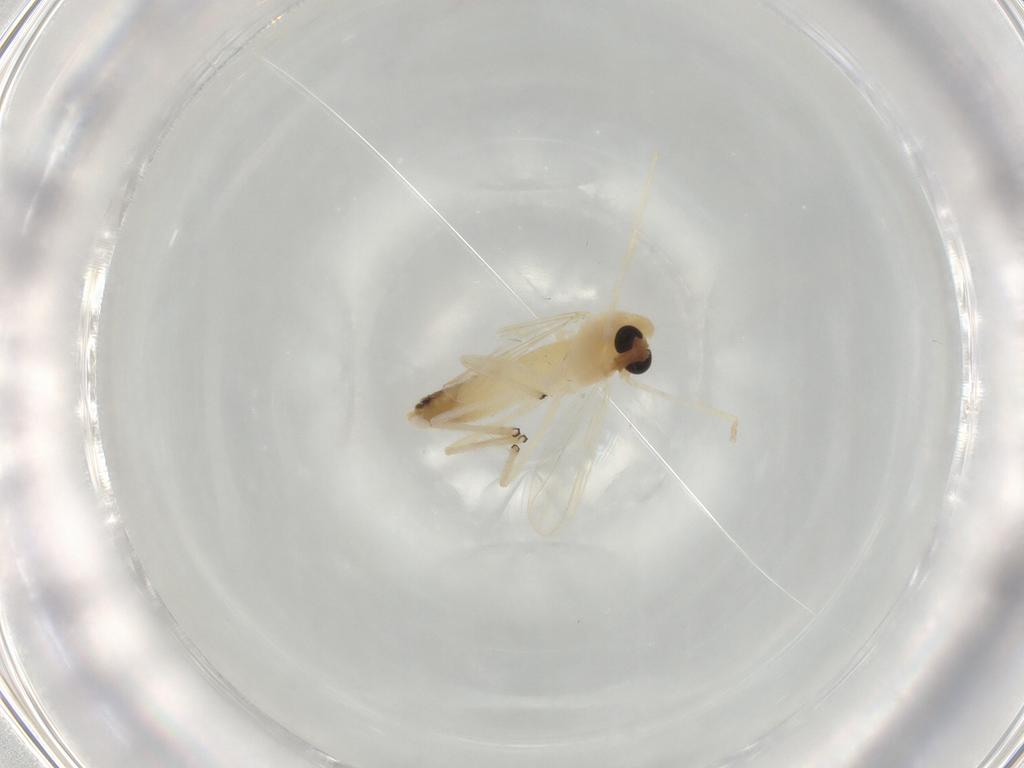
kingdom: Animalia
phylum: Arthropoda
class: Insecta
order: Diptera
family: Chironomidae
